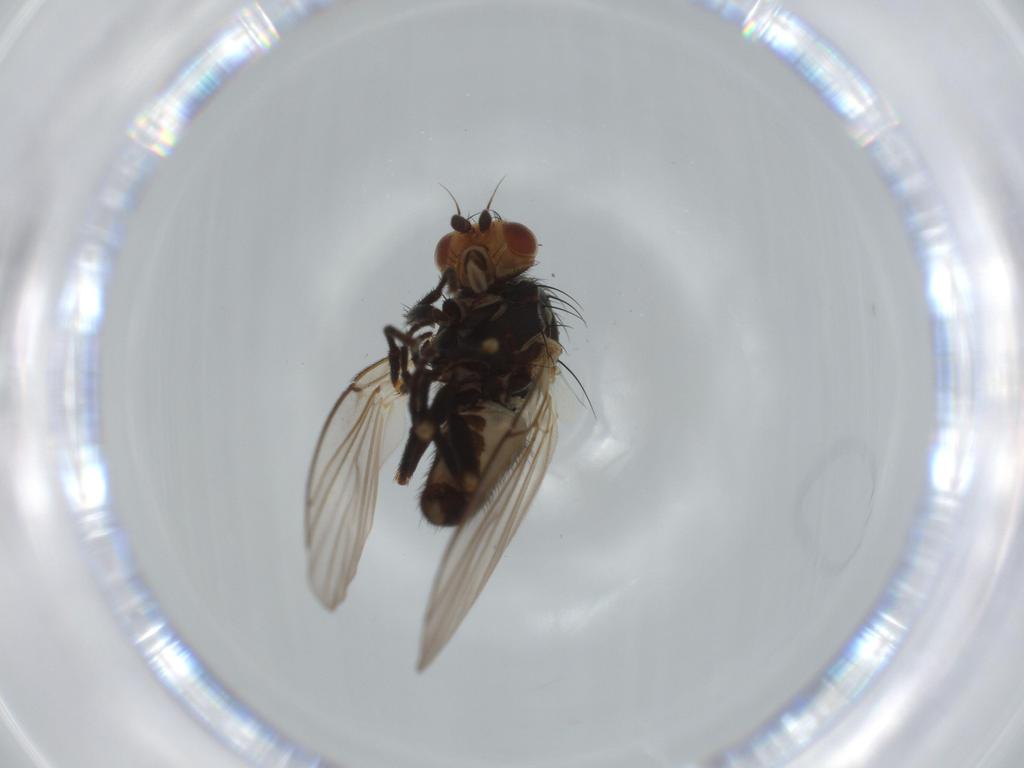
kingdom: Animalia
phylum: Arthropoda
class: Insecta
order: Diptera
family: Agromyzidae
